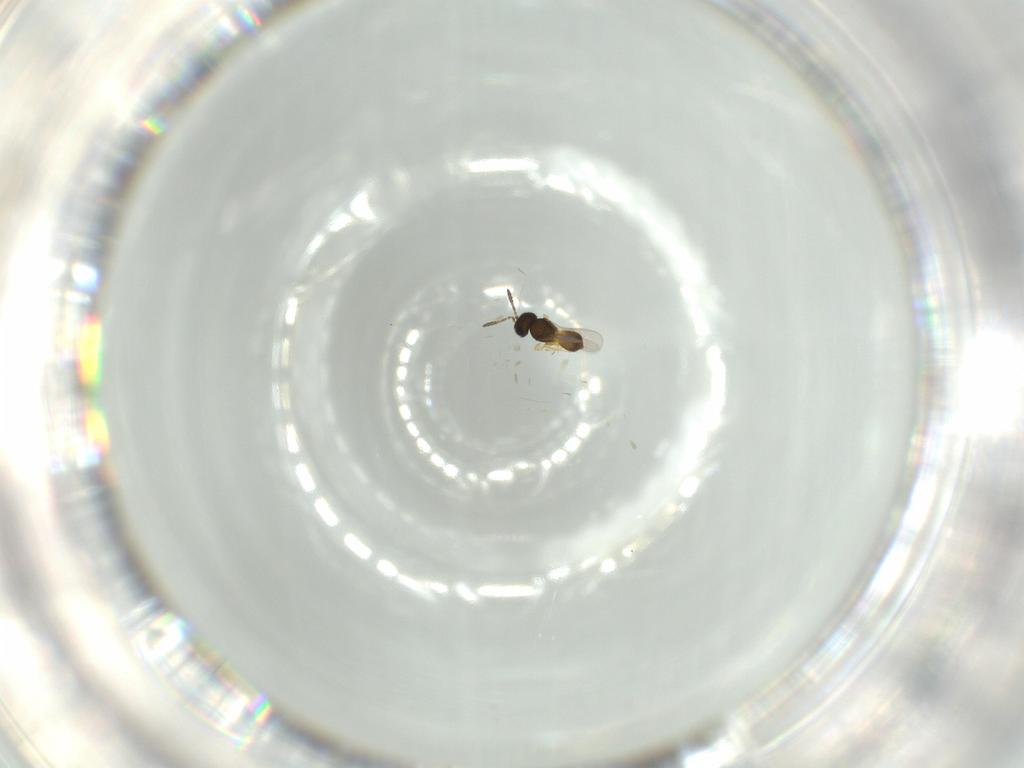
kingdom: Animalia
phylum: Arthropoda
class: Insecta
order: Hymenoptera
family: Scelionidae
